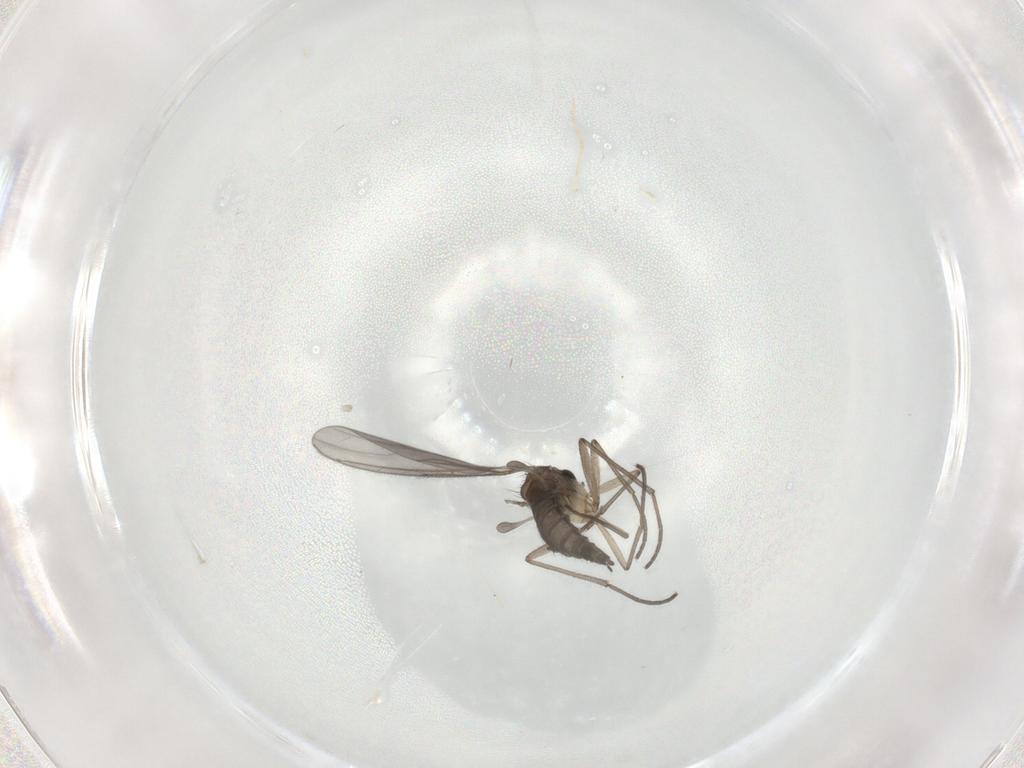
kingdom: Animalia
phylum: Arthropoda
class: Insecta
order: Diptera
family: Sciaridae
